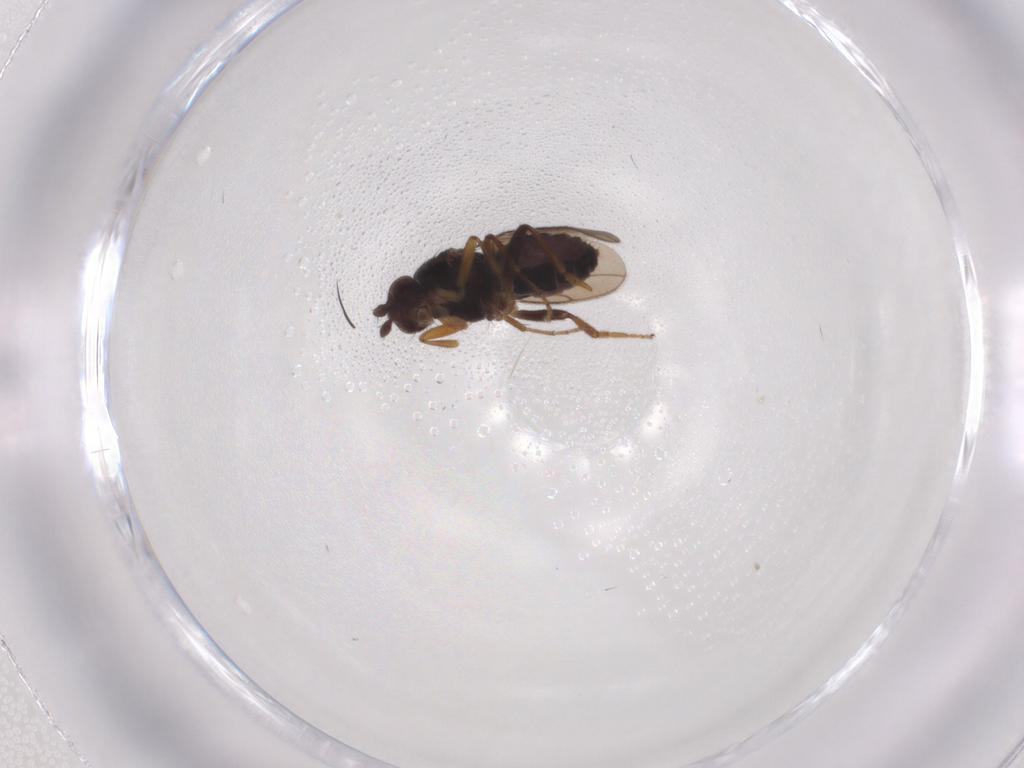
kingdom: Animalia
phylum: Arthropoda
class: Insecta
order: Diptera
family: Sphaeroceridae
